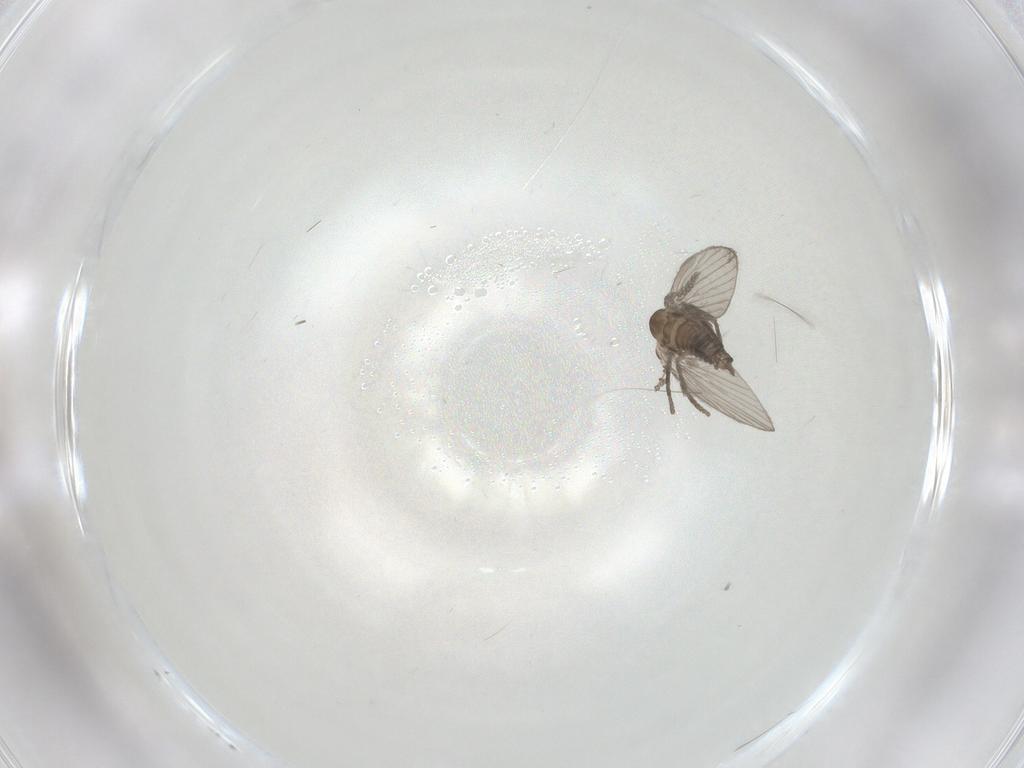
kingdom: Animalia
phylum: Arthropoda
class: Insecta
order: Diptera
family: Psychodidae
